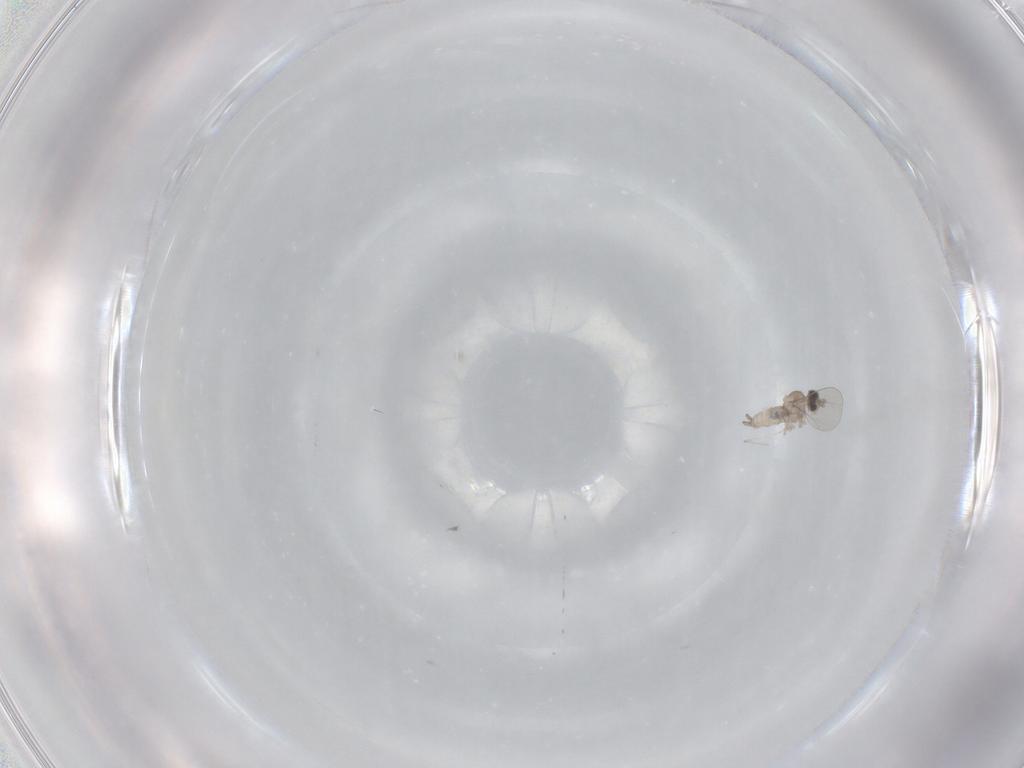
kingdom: Animalia
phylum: Arthropoda
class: Insecta
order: Diptera
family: Cecidomyiidae
